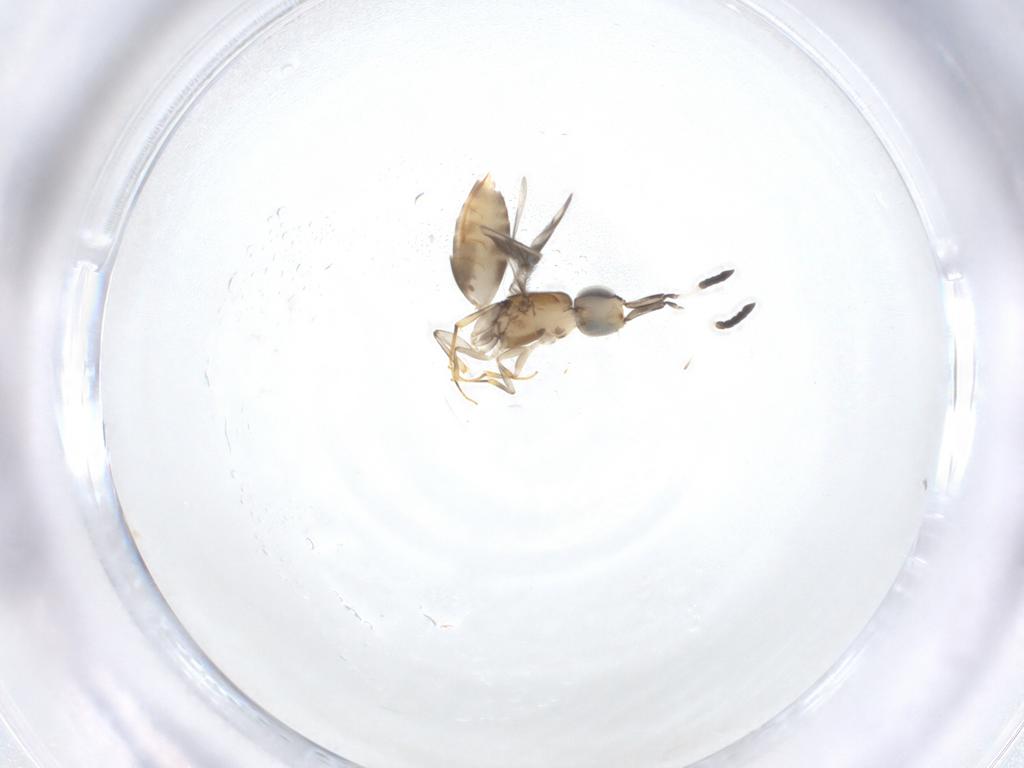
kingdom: Animalia
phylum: Arthropoda
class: Insecta
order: Hymenoptera
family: Megaspilidae
